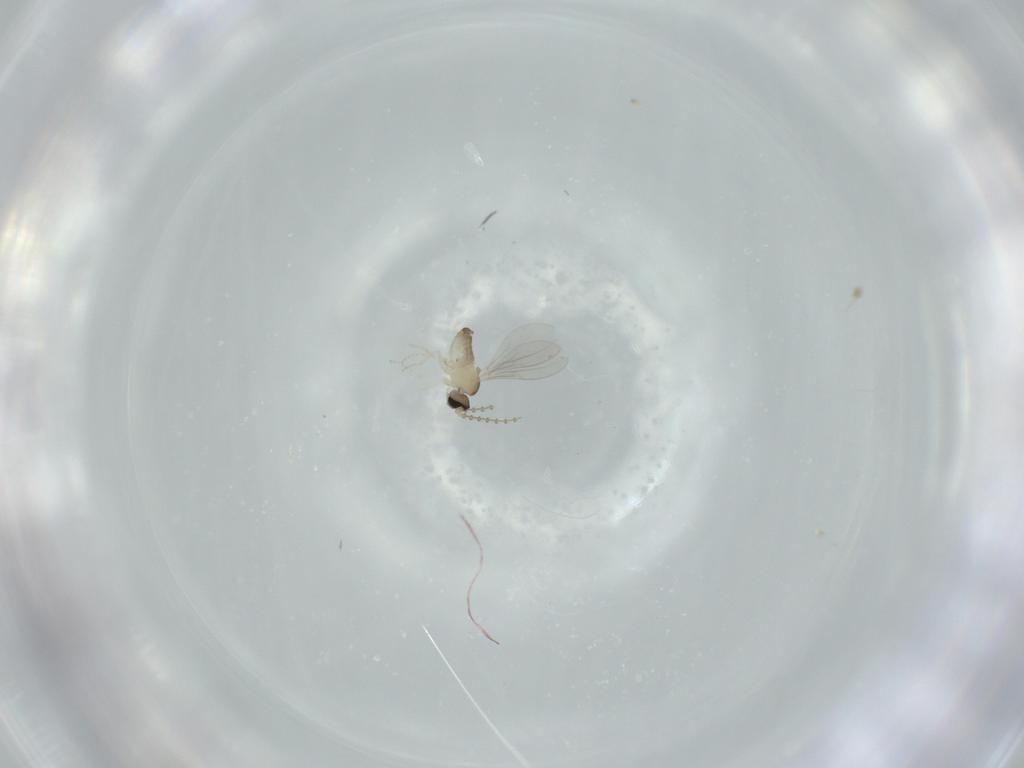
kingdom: Animalia
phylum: Arthropoda
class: Insecta
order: Diptera
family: Cecidomyiidae
